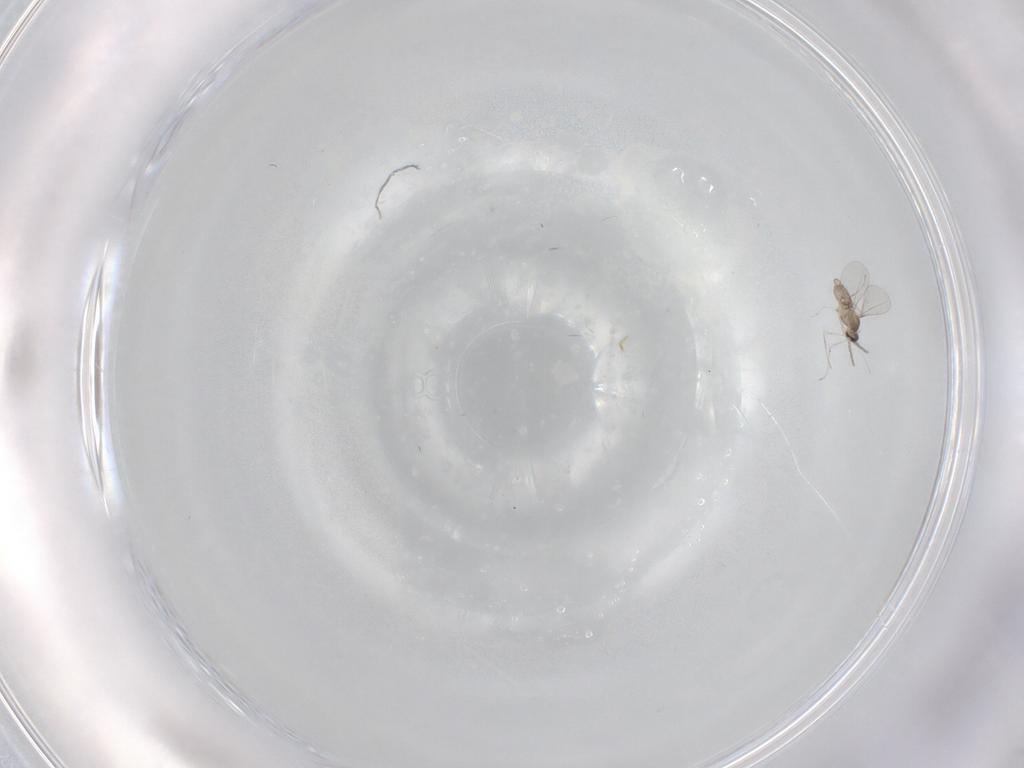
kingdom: Animalia
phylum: Arthropoda
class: Insecta
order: Diptera
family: Cecidomyiidae
